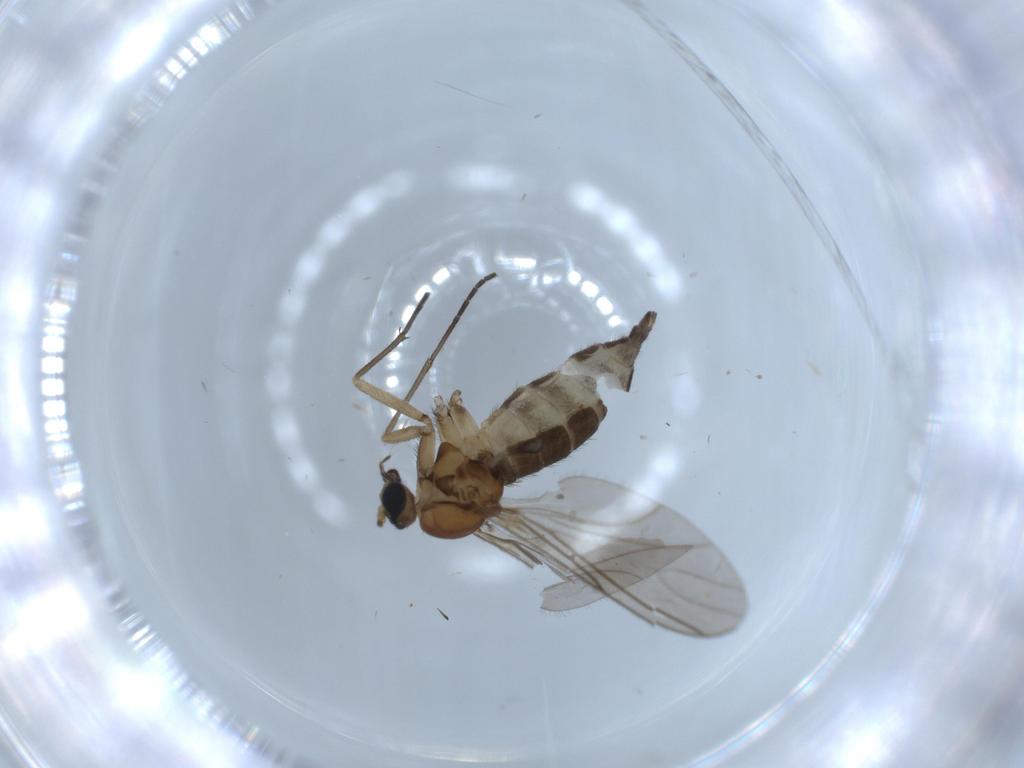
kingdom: Animalia
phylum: Arthropoda
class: Insecta
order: Diptera
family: Sciaridae
